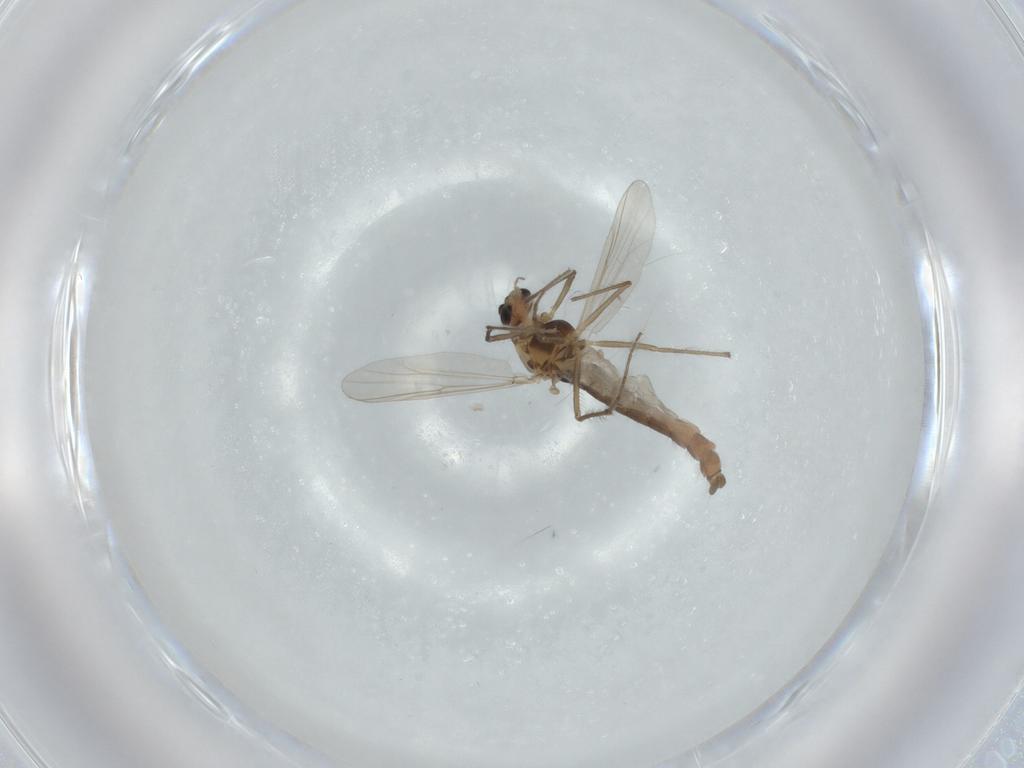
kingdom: Animalia
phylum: Arthropoda
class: Insecta
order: Diptera
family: Chironomidae
